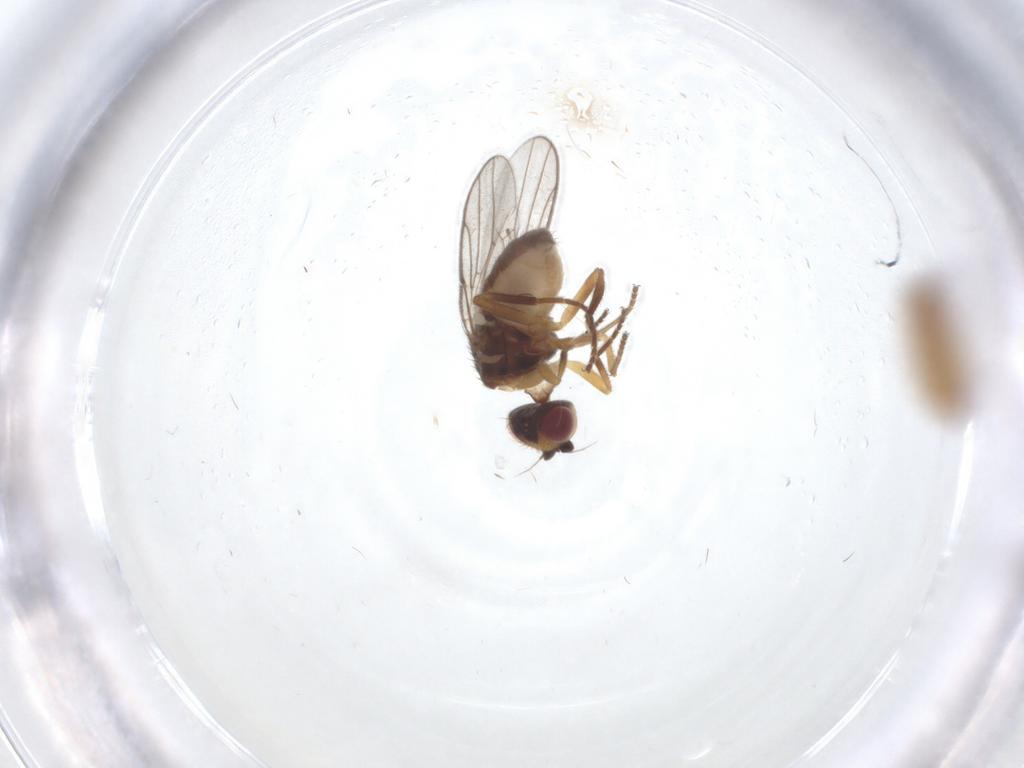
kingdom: Animalia
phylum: Arthropoda
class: Insecta
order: Diptera
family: Chloropidae
